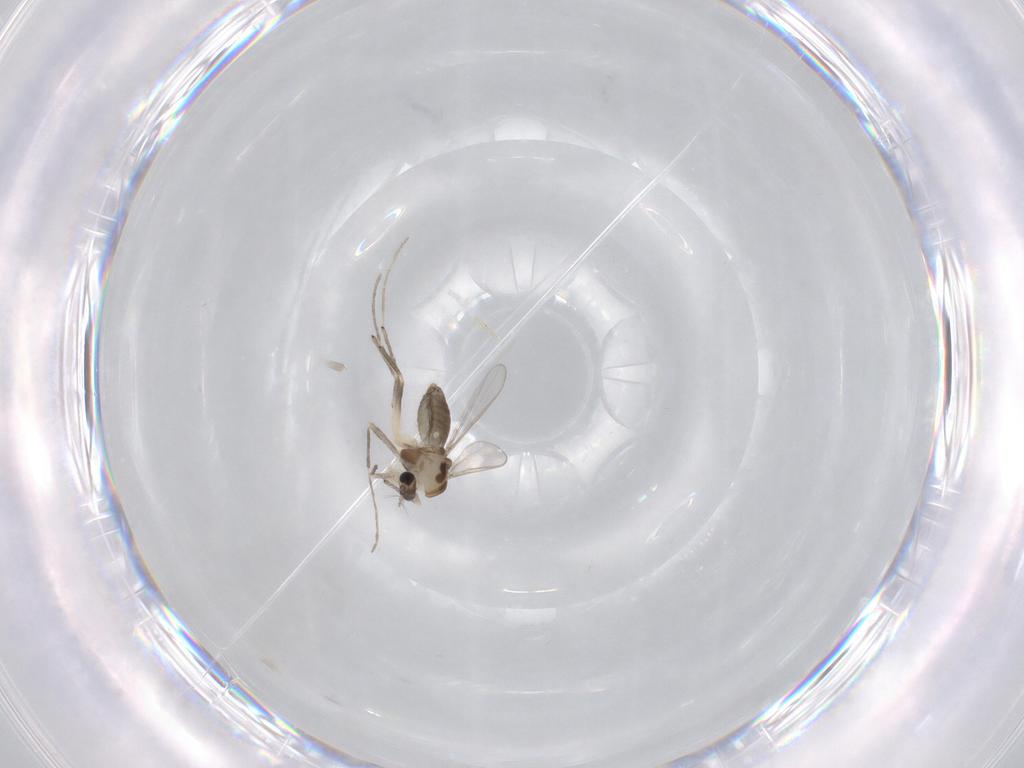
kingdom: Animalia
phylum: Arthropoda
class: Insecta
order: Diptera
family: Chironomidae
